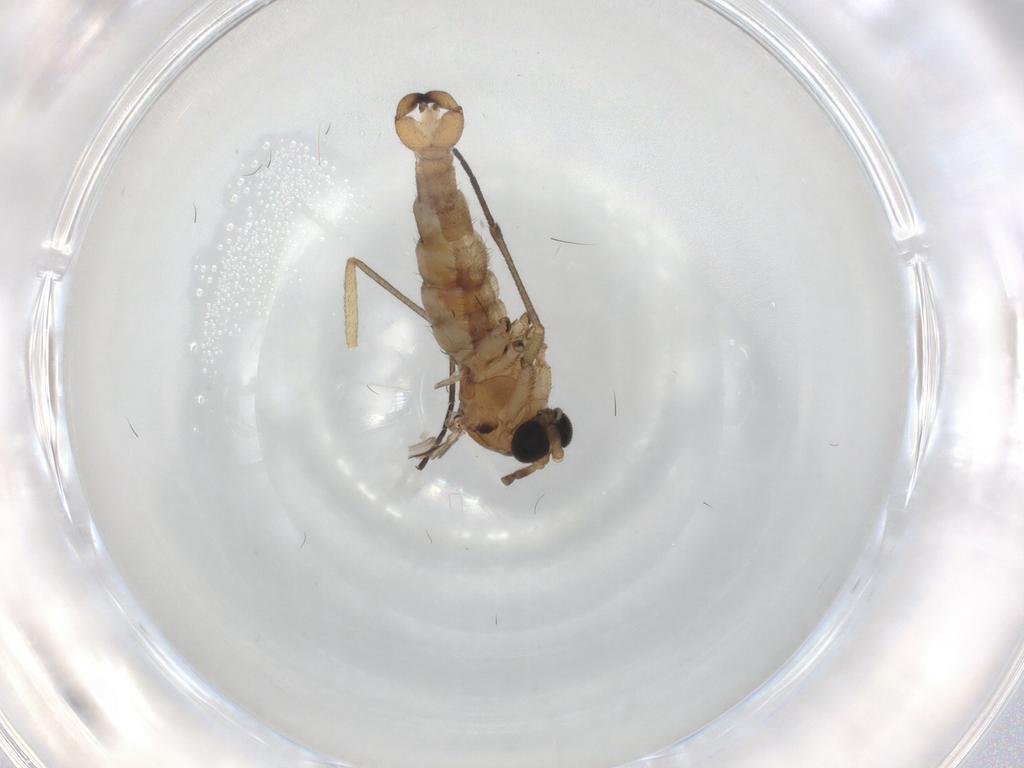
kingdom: Animalia
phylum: Arthropoda
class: Insecta
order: Diptera
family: Sciaridae
